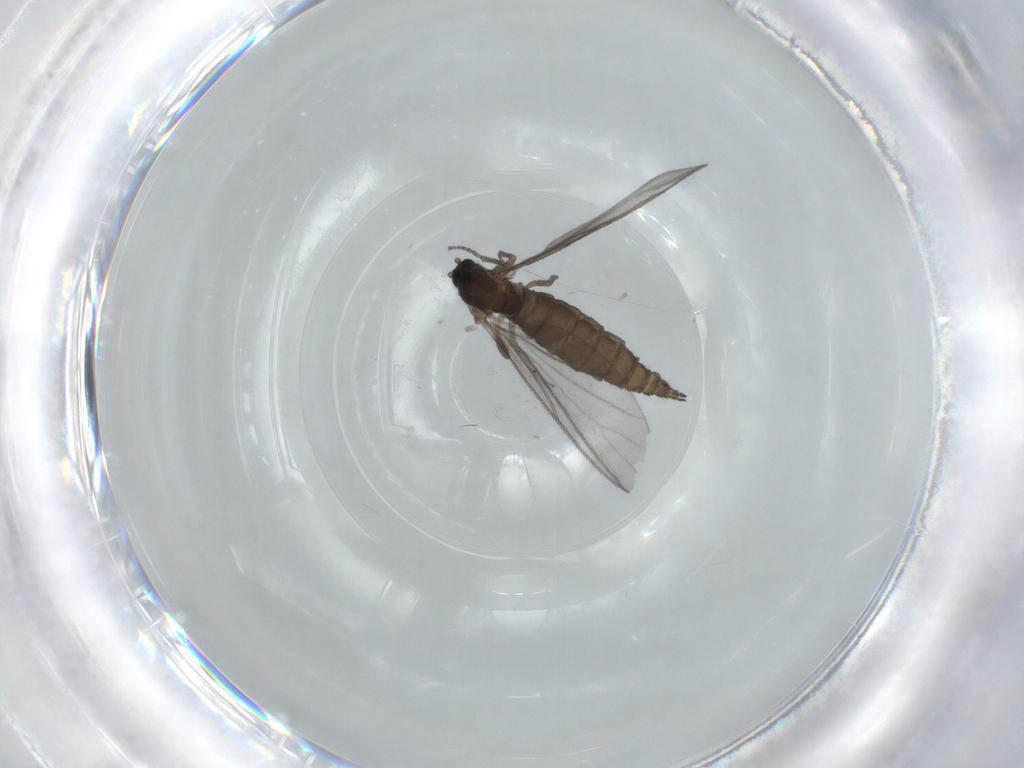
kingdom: Animalia
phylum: Arthropoda
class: Insecta
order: Diptera
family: Sciaridae
